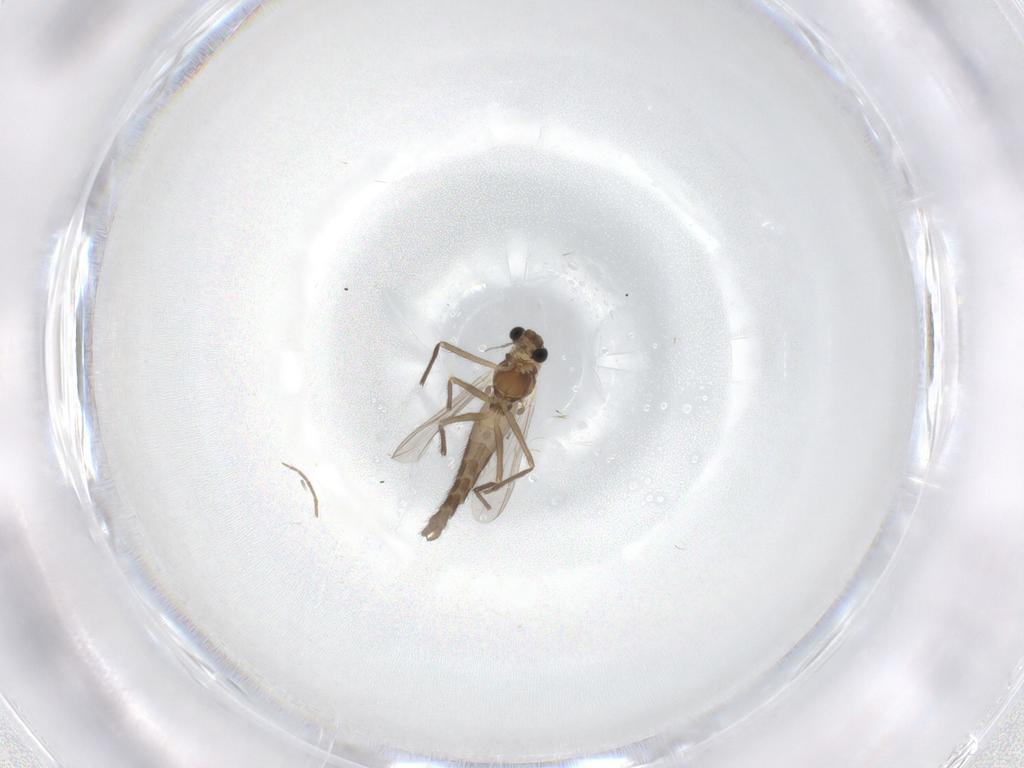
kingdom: Animalia
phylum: Arthropoda
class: Insecta
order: Diptera
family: Chironomidae
